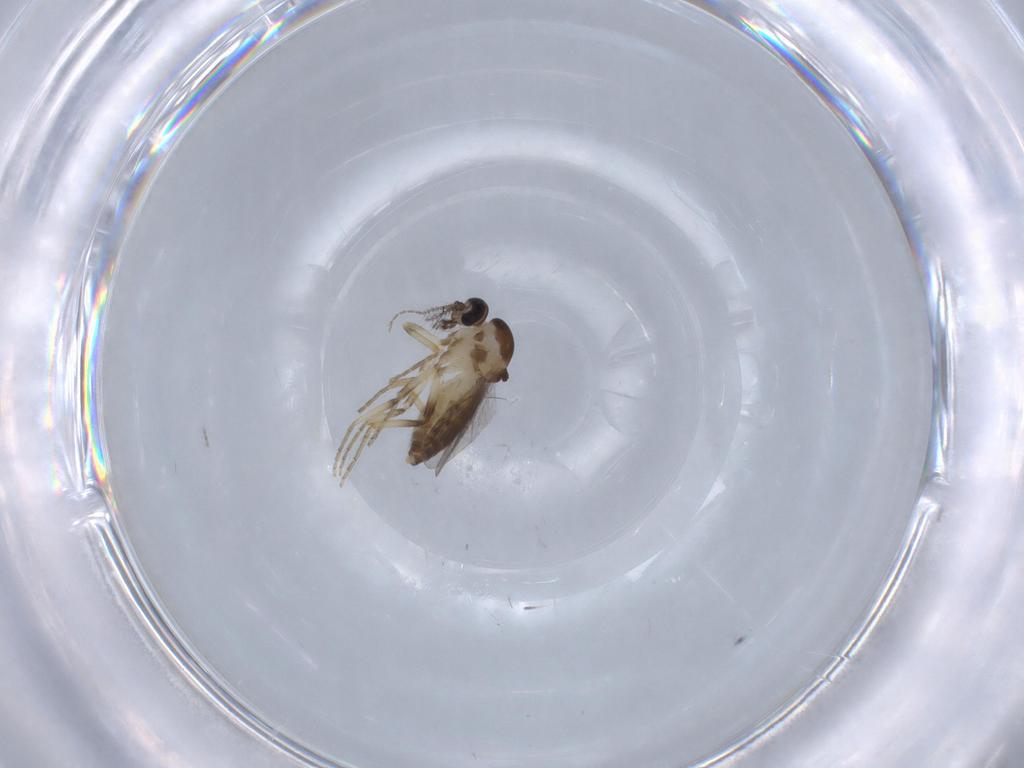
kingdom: Animalia
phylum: Arthropoda
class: Insecta
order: Diptera
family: Ceratopogonidae
